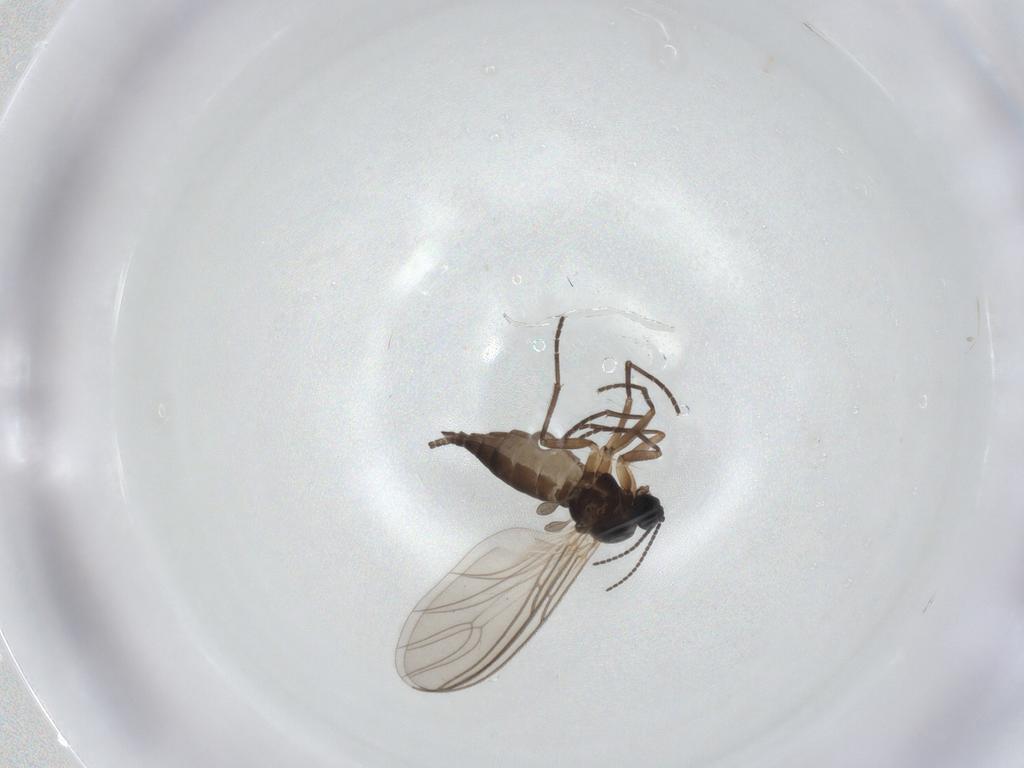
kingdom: Animalia
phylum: Arthropoda
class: Insecta
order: Diptera
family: Sciaridae
